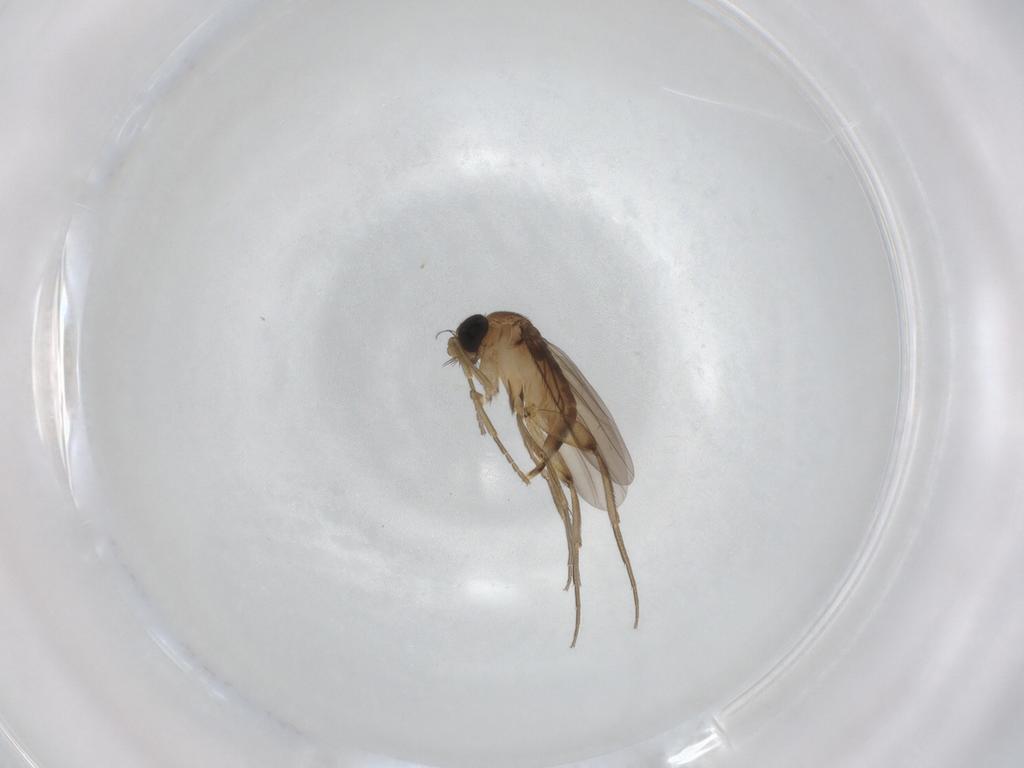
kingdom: Animalia
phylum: Arthropoda
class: Insecta
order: Diptera
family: Phoridae
